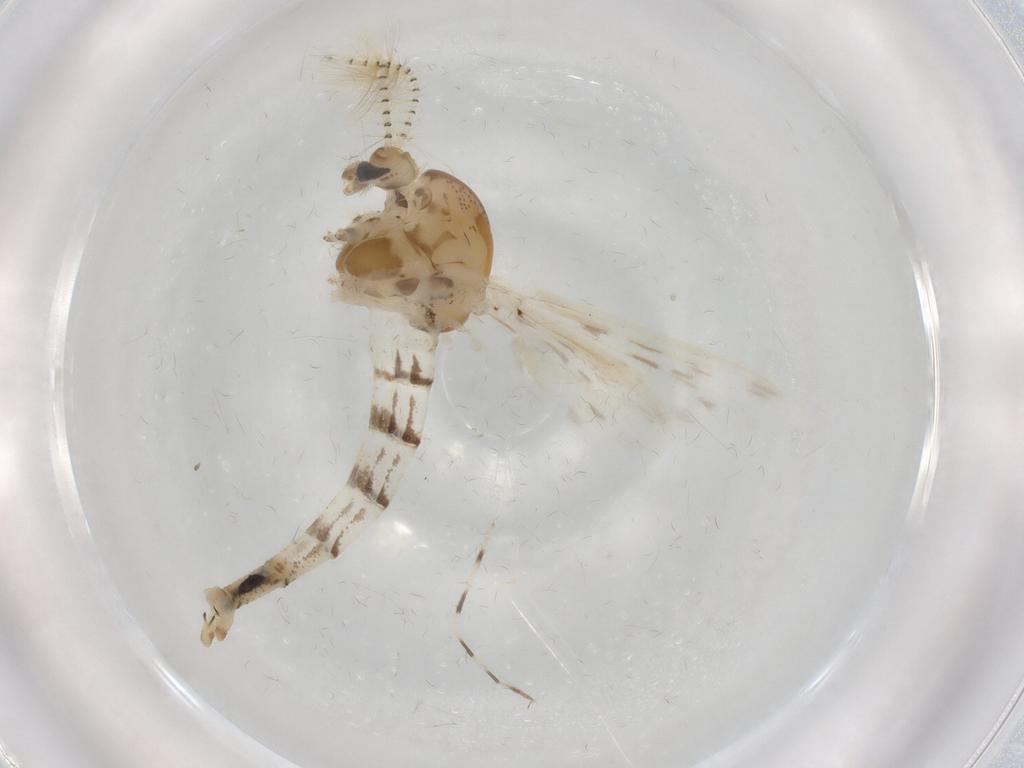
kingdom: Animalia
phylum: Arthropoda
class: Insecta
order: Diptera
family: Chaoboridae
